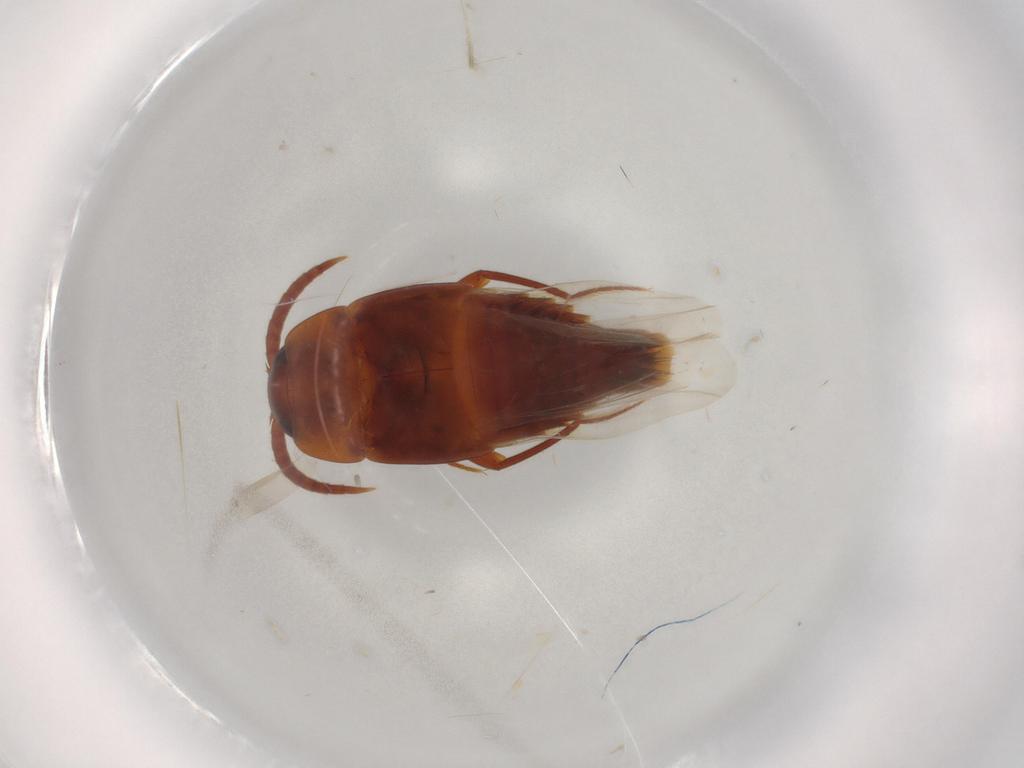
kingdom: Animalia
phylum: Arthropoda
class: Insecta
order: Coleoptera
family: Staphylinidae
